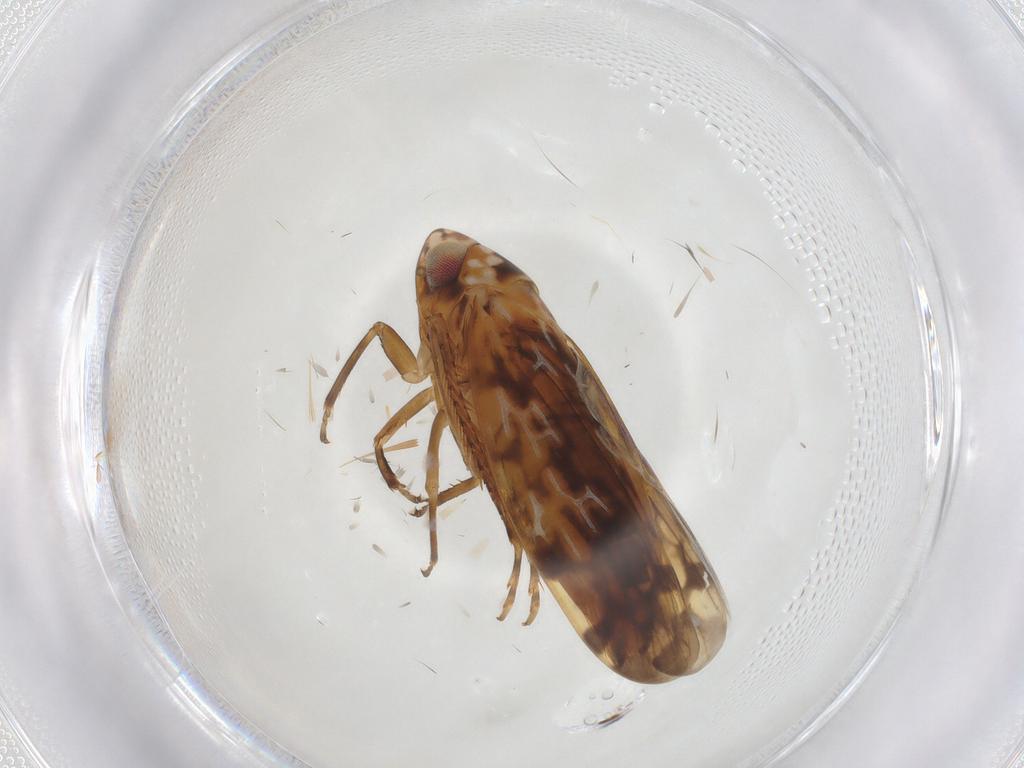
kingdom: Animalia
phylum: Arthropoda
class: Insecta
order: Hemiptera
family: Cicadellidae
